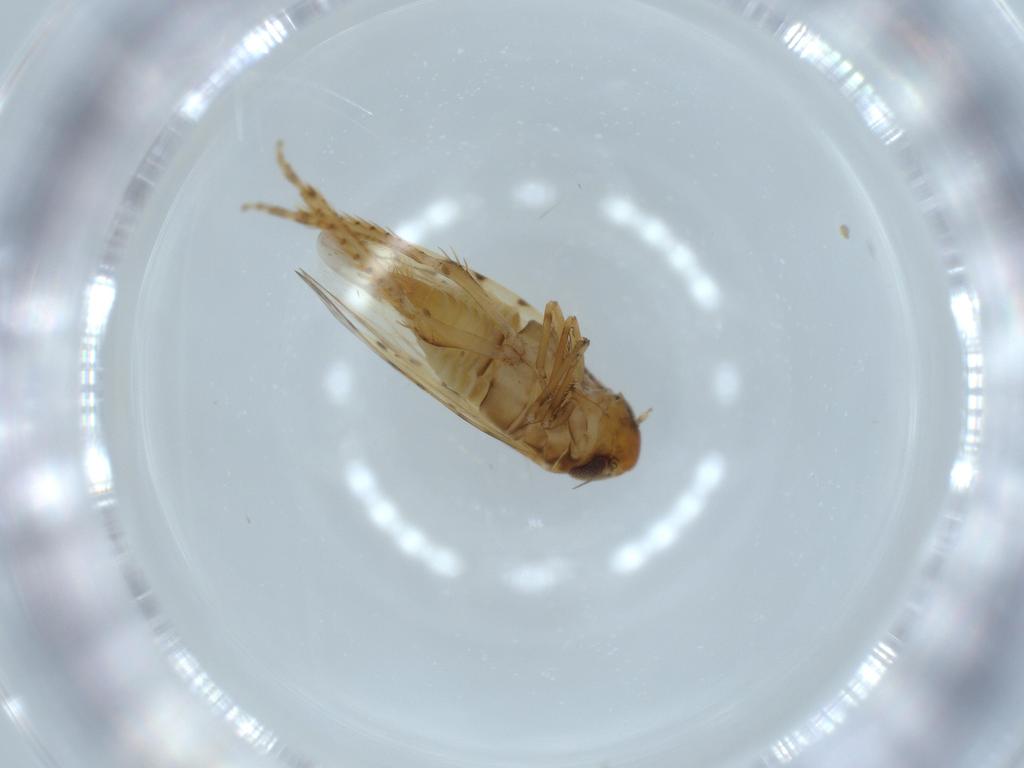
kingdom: Animalia
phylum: Arthropoda
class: Insecta
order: Hemiptera
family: Cicadellidae
